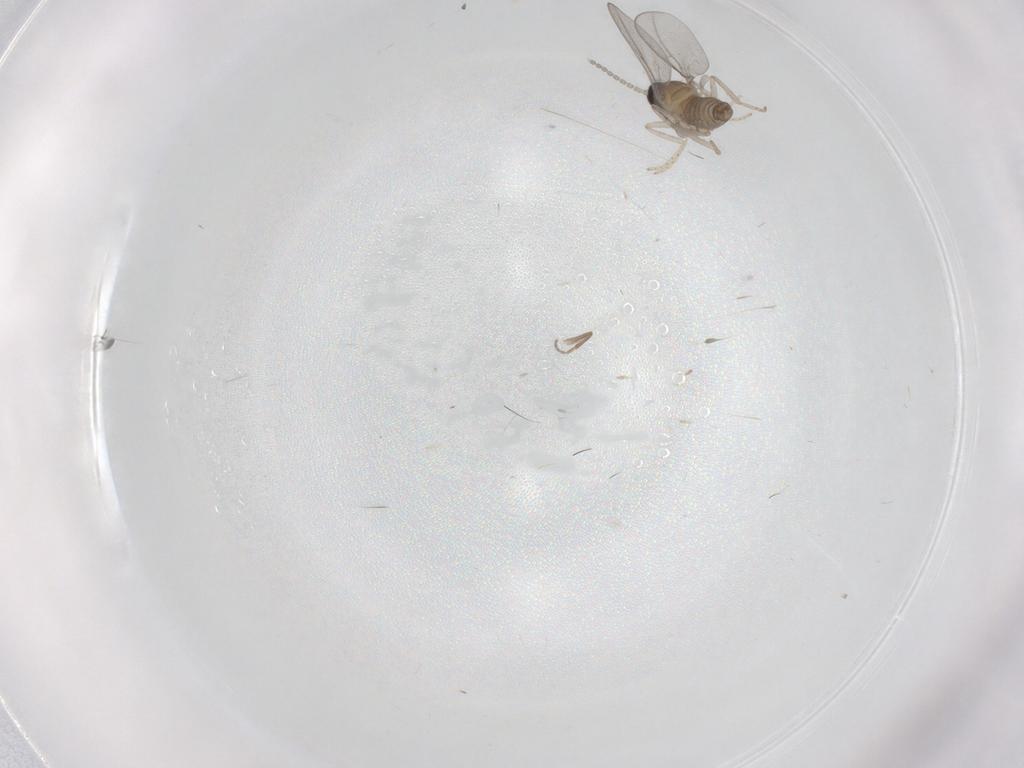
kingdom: Animalia
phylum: Arthropoda
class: Insecta
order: Diptera
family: Cecidomyiidae
